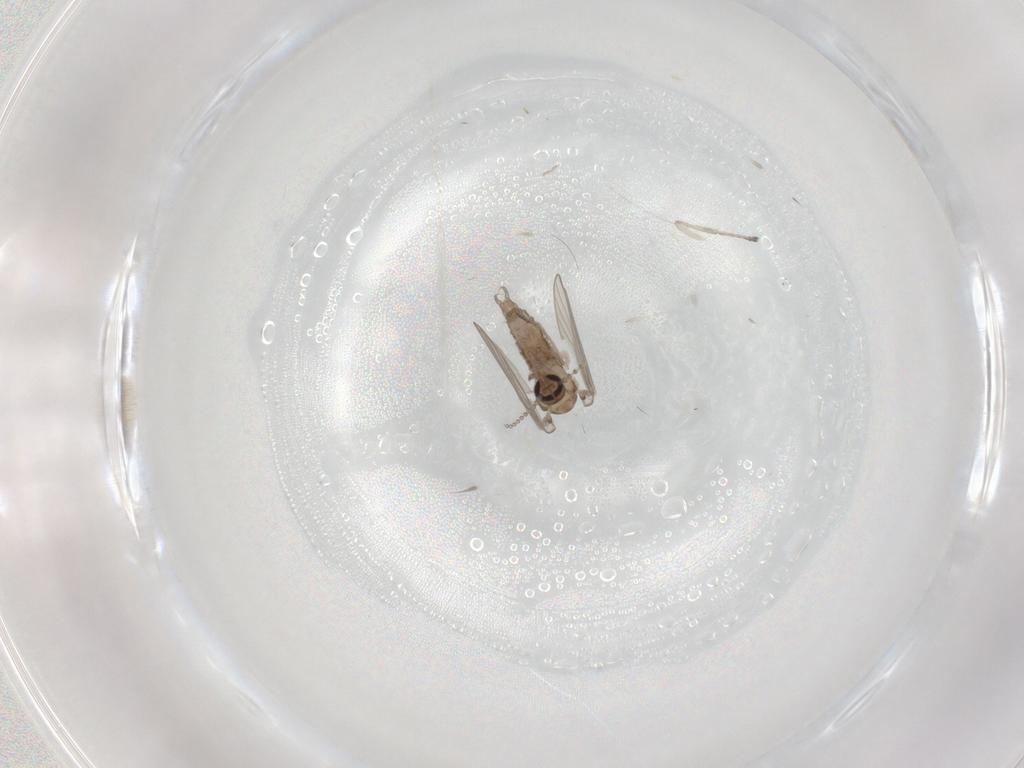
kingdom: Animalia
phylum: Arthropoda
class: Insecta
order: Diptera
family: Psychodidae
